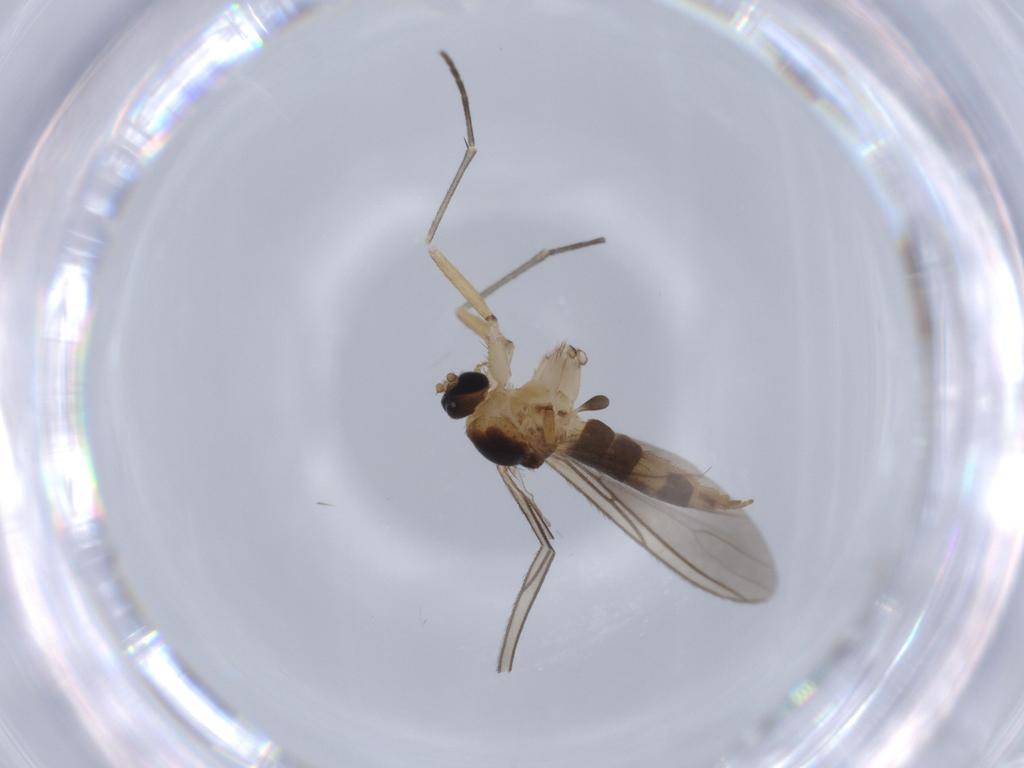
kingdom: Animalia
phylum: Arthropoda
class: Insecta
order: Diptera
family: Sciaridae
